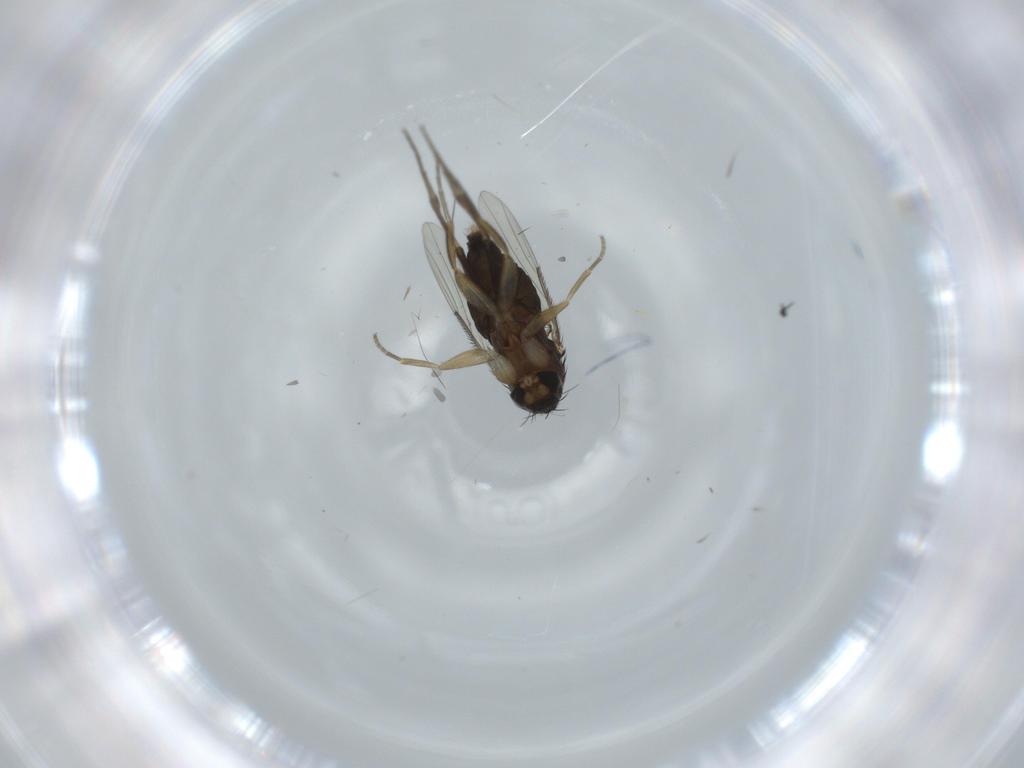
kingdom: Animalia
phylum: Arthropoda
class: Insecta
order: Diptera
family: Phoridae
